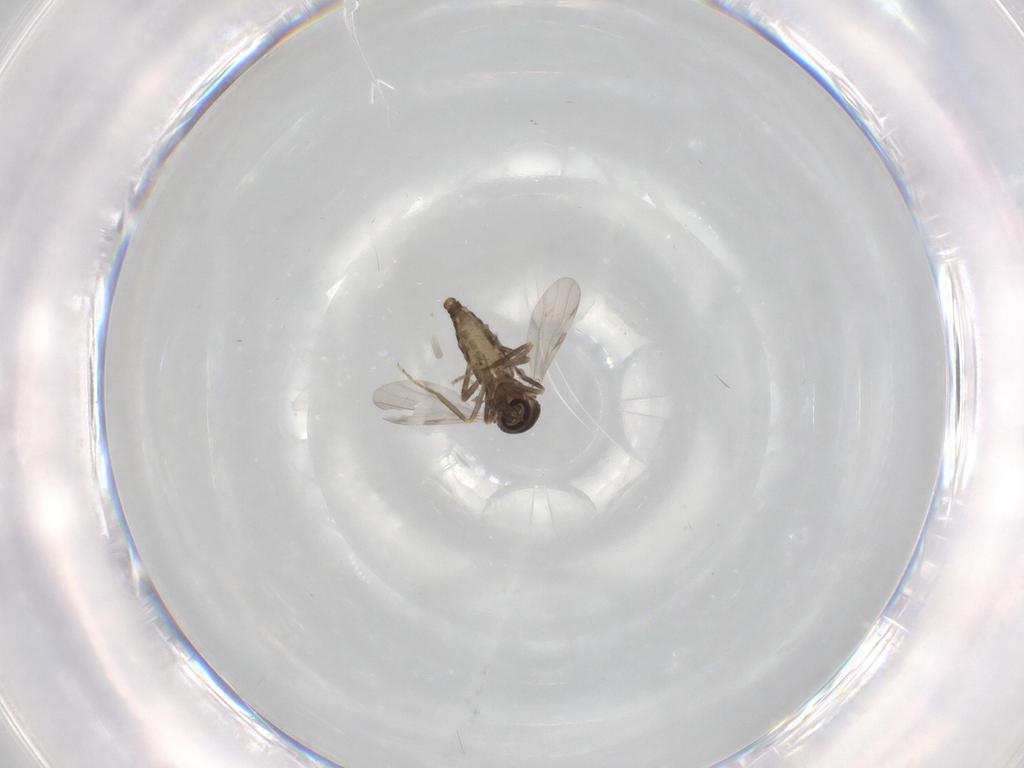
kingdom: Animalia
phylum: Arthropoda
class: Insecta
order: Diptera
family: Ceratopogonidae
